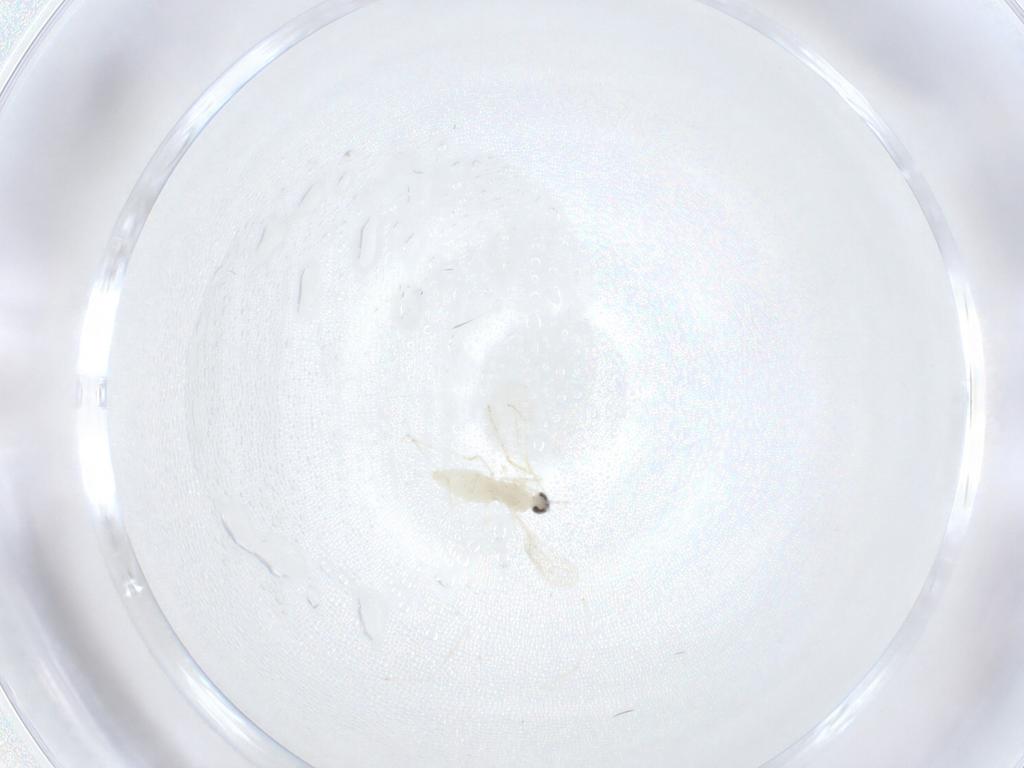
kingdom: Animalia
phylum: Arthropoda
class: Insecta
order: Diptera
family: Cecidomyiidae
